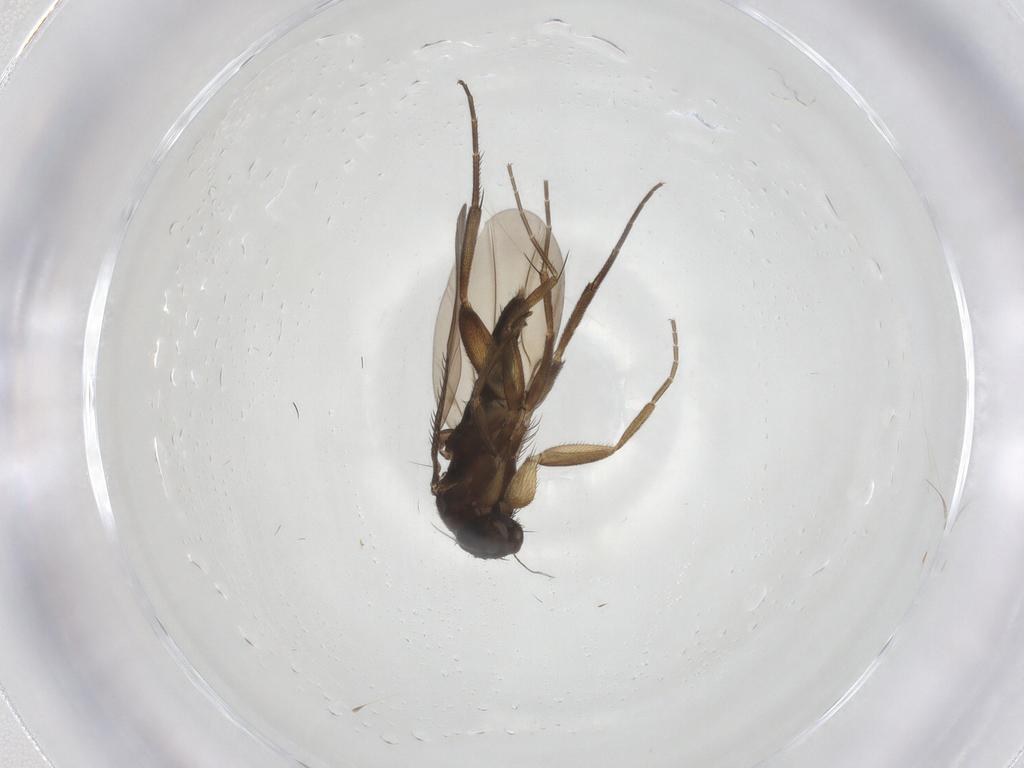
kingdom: Animalia
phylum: Arthropoda
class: Insecta
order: Diptera
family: Phoridae
